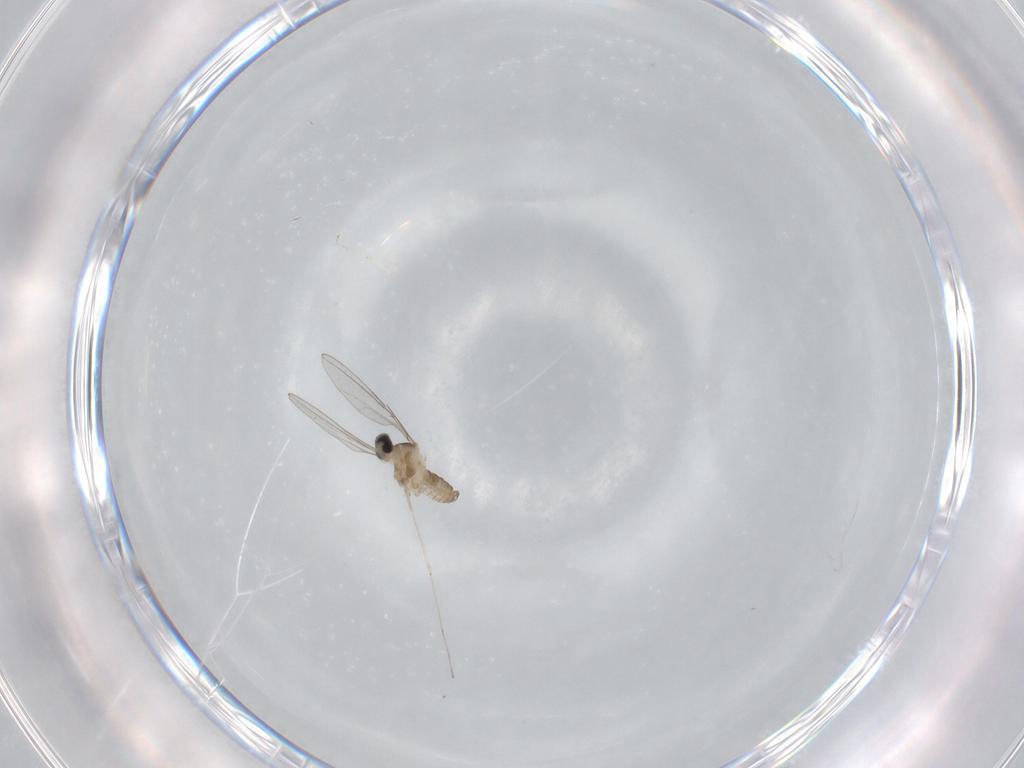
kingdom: Animalia
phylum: Arthropoda
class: Insecta
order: Diptera
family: Cecidomyiidae
